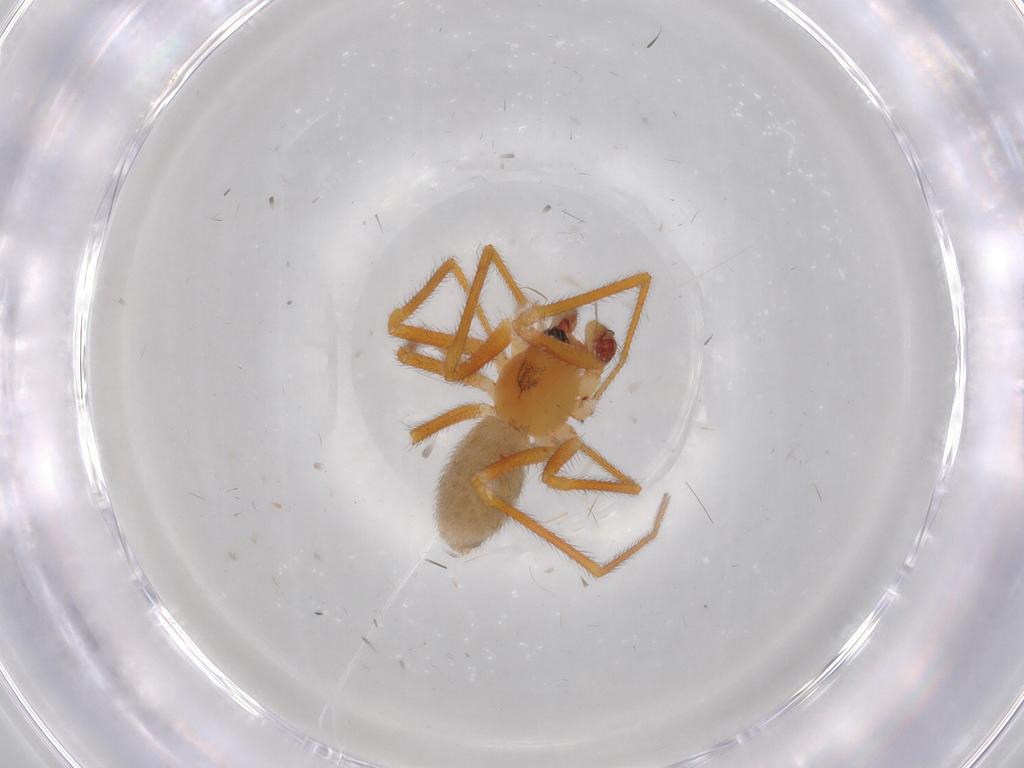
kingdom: Animalia
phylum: Arthropoda
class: Arachnida
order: Araneae
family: Linyphiidae
